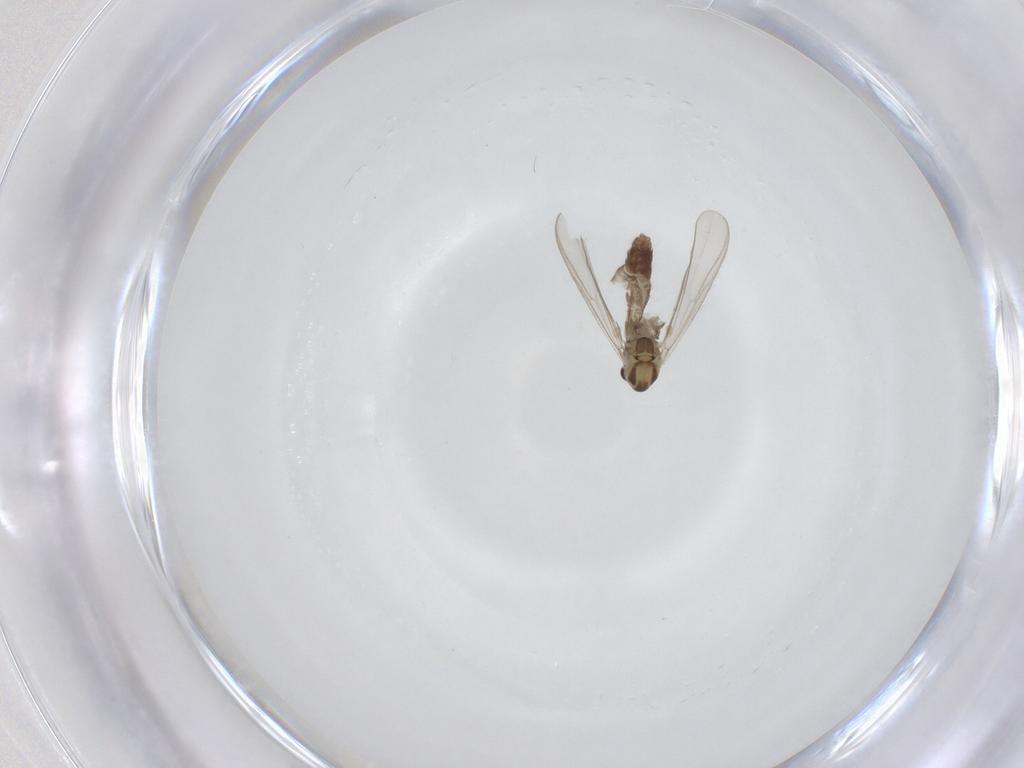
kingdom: Animalia
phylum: Arthropoda
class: Insecta
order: Diptera
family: Chironomidae
